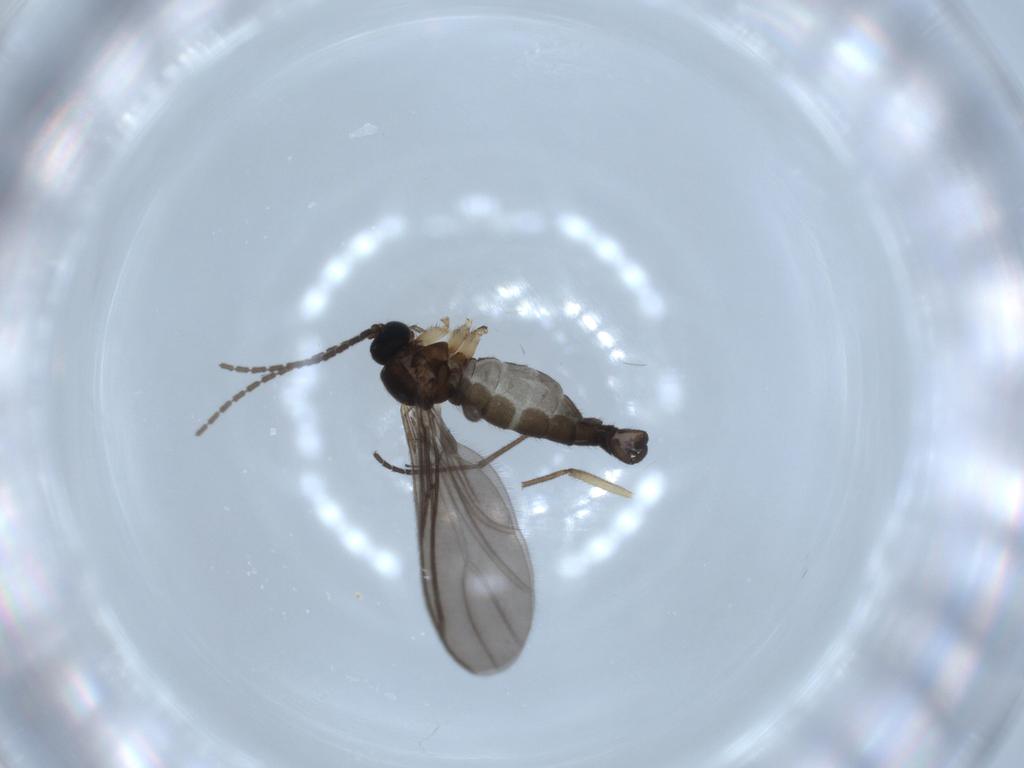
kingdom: Animalia
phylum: Arthropoda
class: Insecta
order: Diptera
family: Sciaridae
